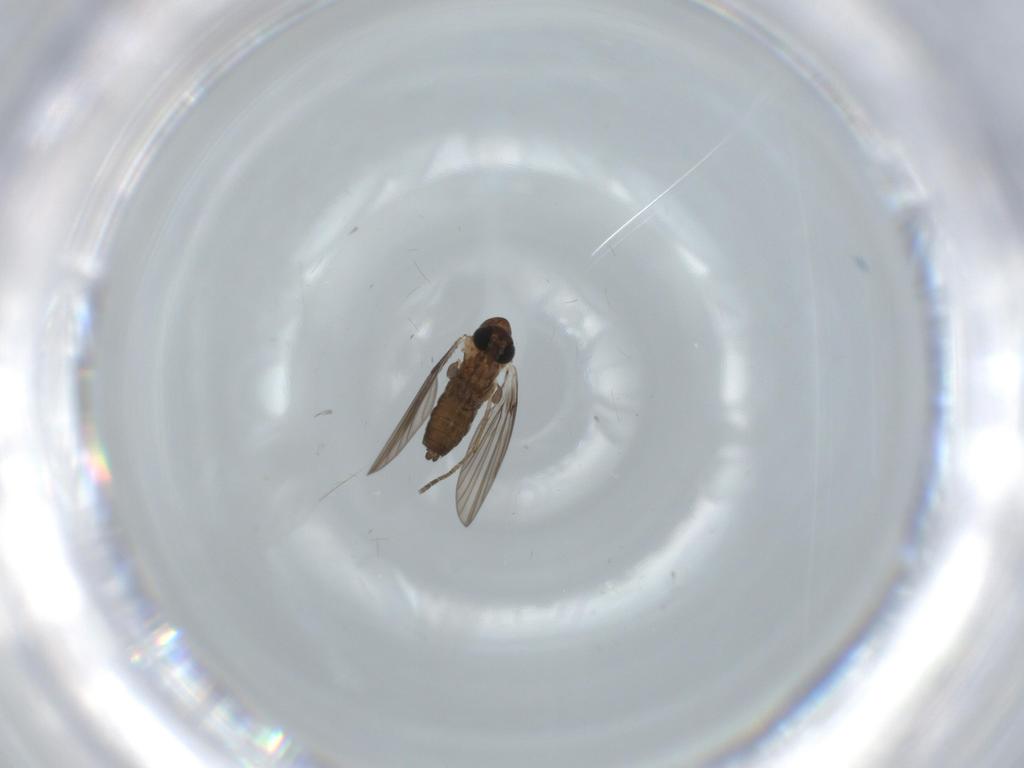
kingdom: Animalia
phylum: Arthropoda
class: Insecta
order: Diptera
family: Psychodidae
